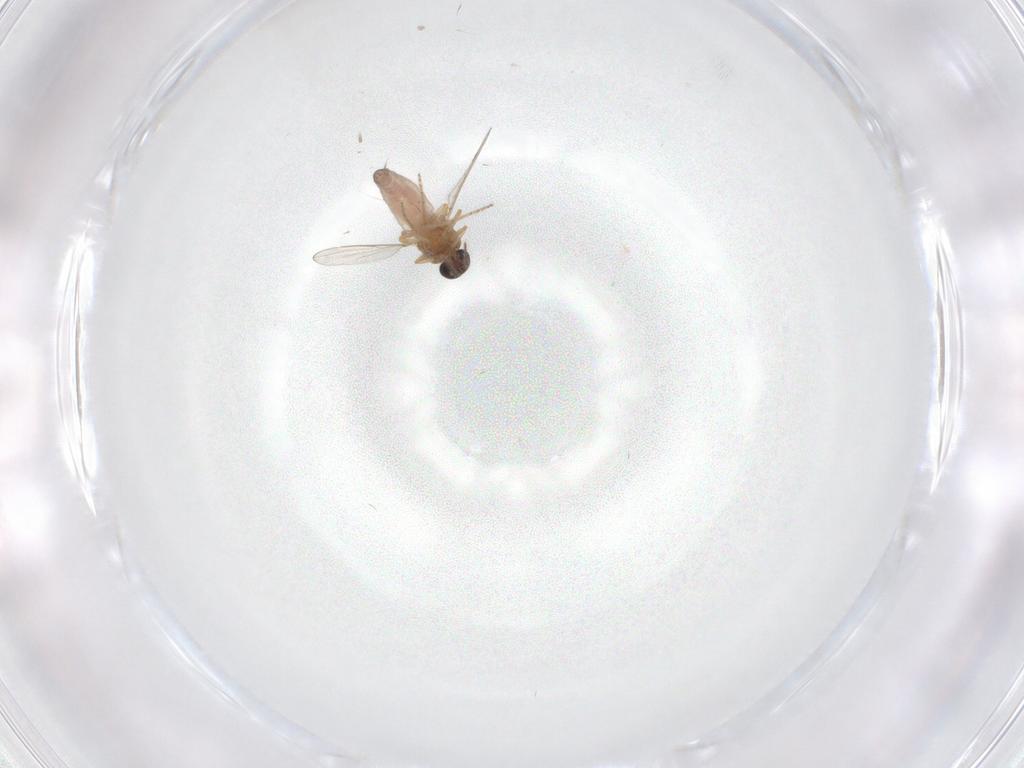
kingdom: Animalia
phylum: Arthropoda
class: Insecta
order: Diptera
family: Ceratopogonidae
